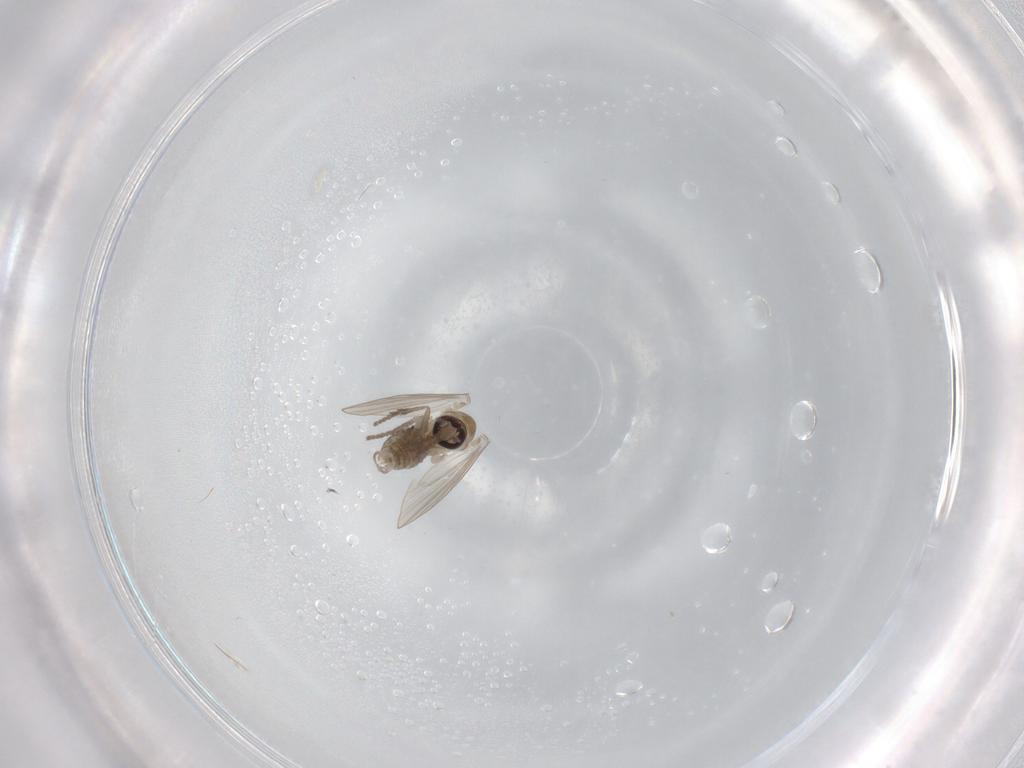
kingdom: Animalia
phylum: Arthropoda
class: Insecta
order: Diptera
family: Psychodidae
